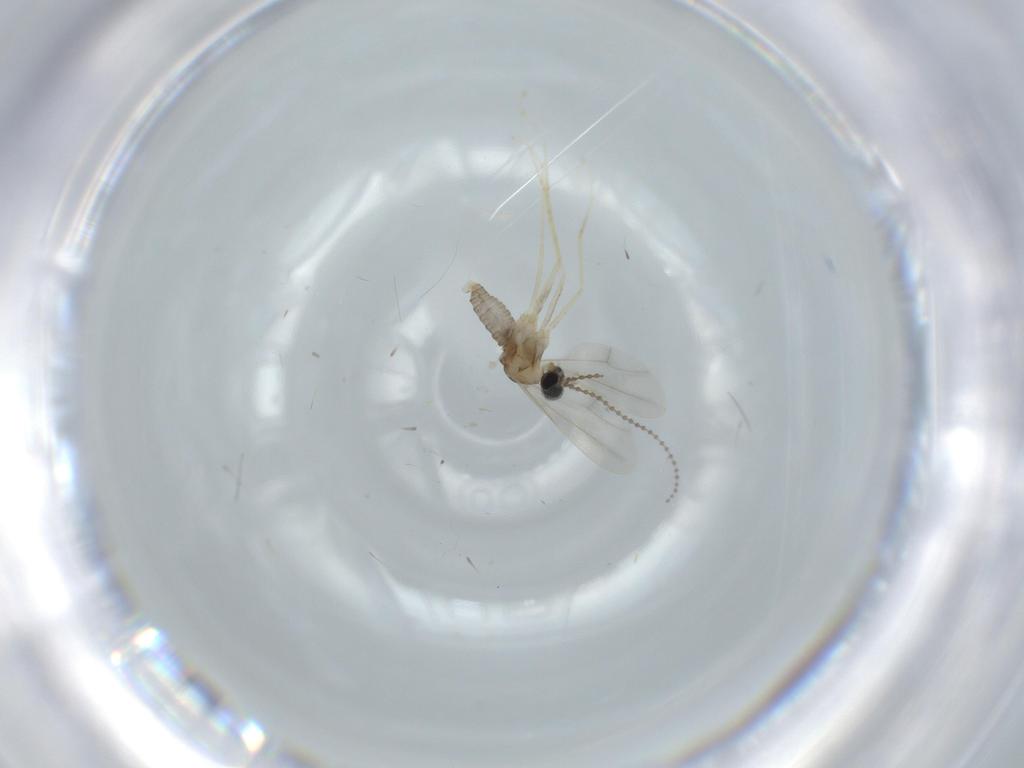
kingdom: Animalia
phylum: Arthropoda
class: Insecta
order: Diptera
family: Cecidomyiidae
